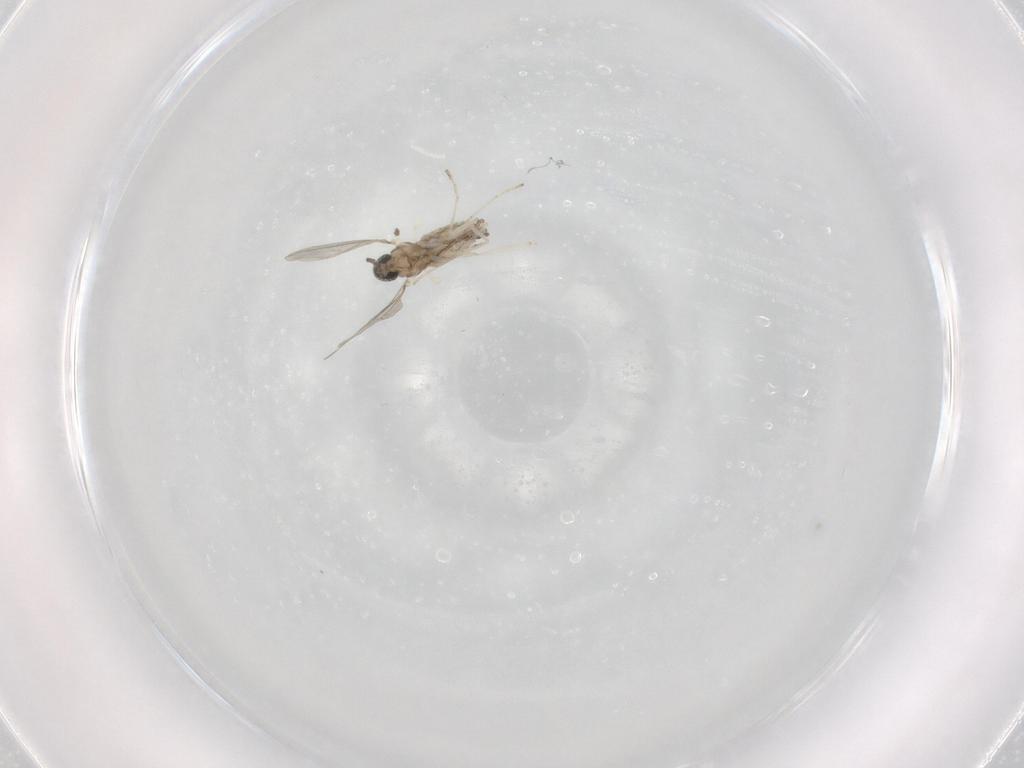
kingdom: Animalia
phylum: Arthropoda
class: Insecta
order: Diptera
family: Cecidomyiidae
